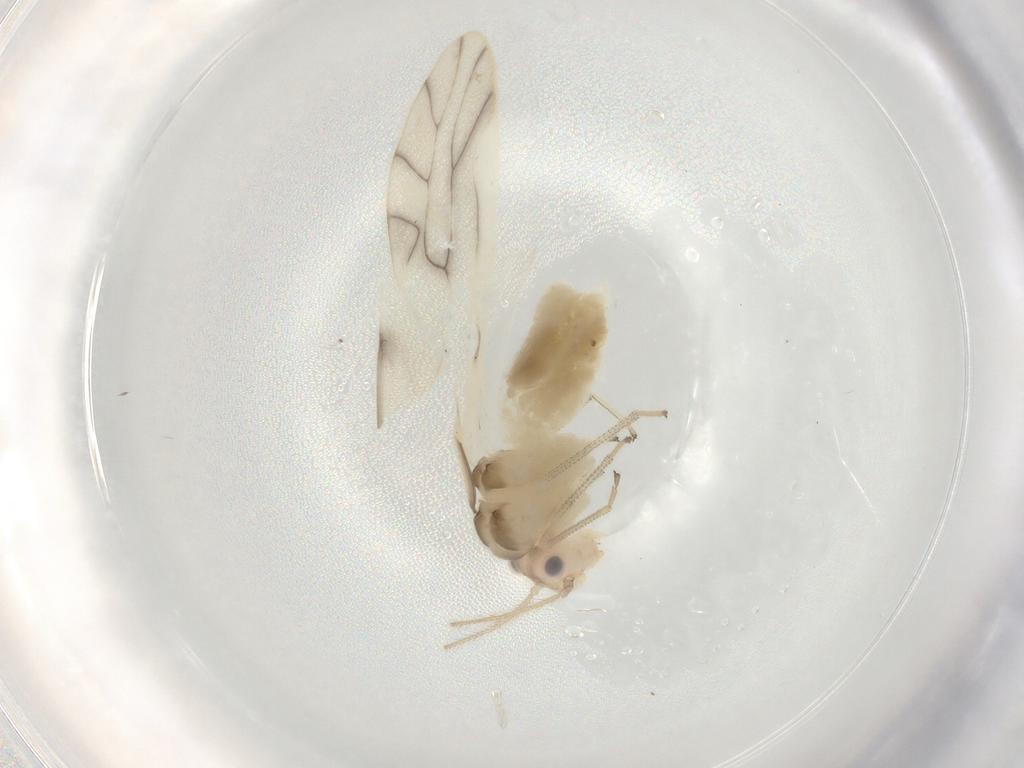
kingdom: Animalia
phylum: Arthropoda
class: Insecta
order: Psocodea
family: Caeciliusidae
